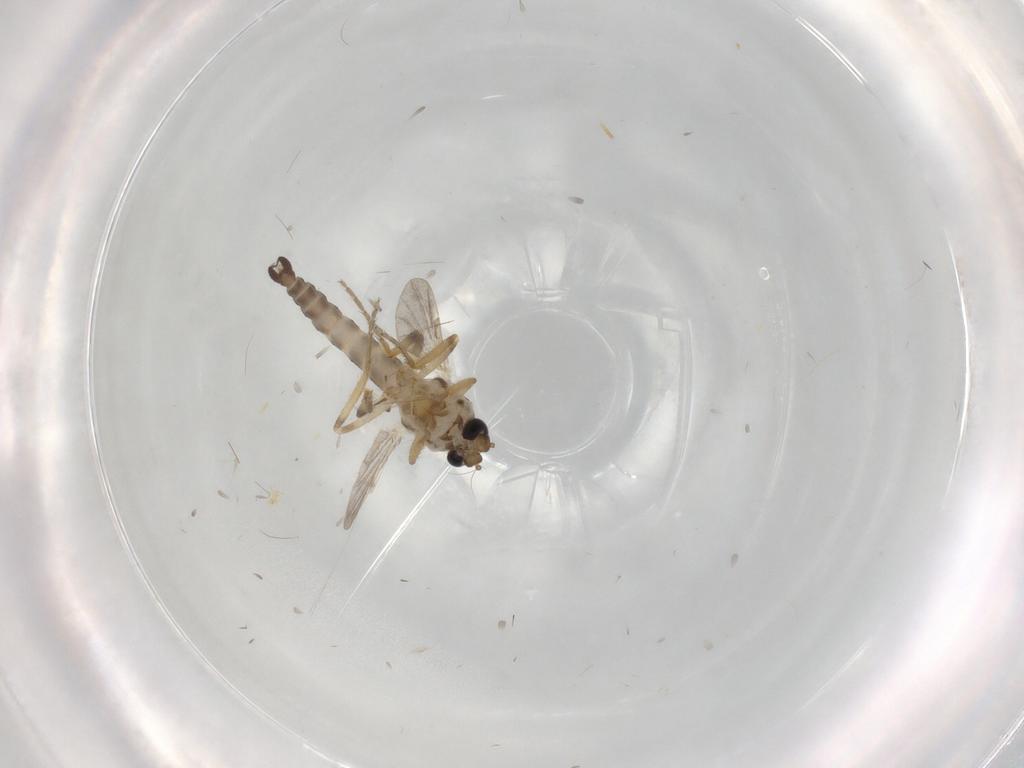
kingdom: Animalia
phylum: Arthropoda
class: Insecta
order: Diptera
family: Ceratopogonidae
